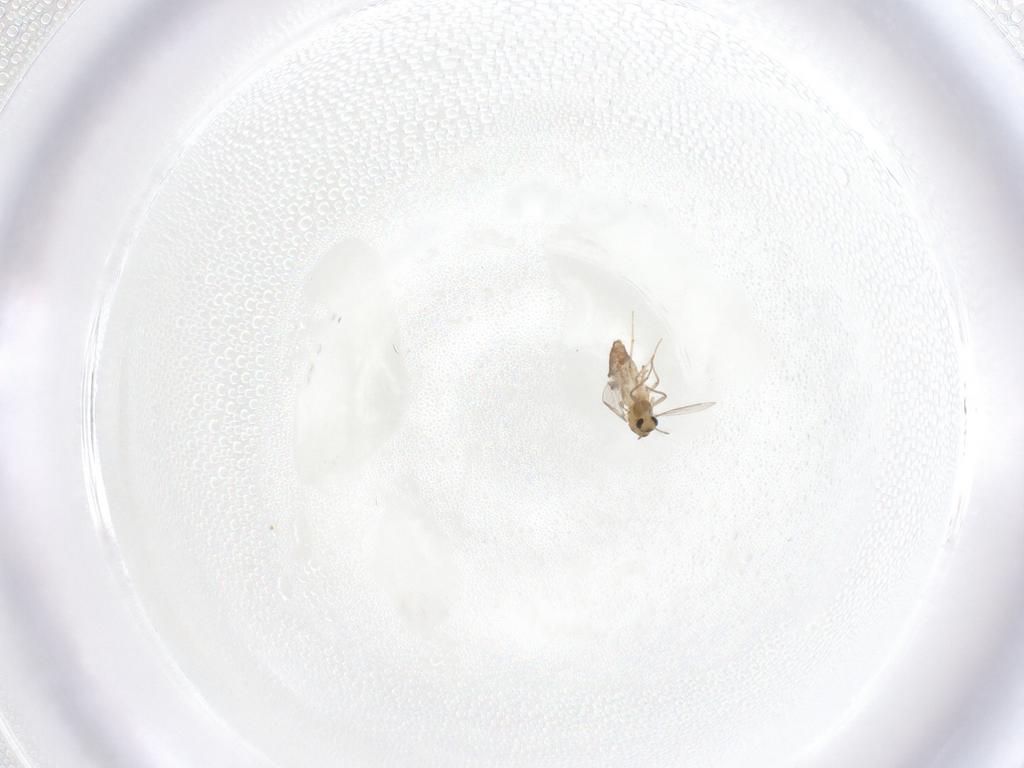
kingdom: Animalia
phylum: Arthropoda
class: Insecta
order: Diptera
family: Chironomidae
